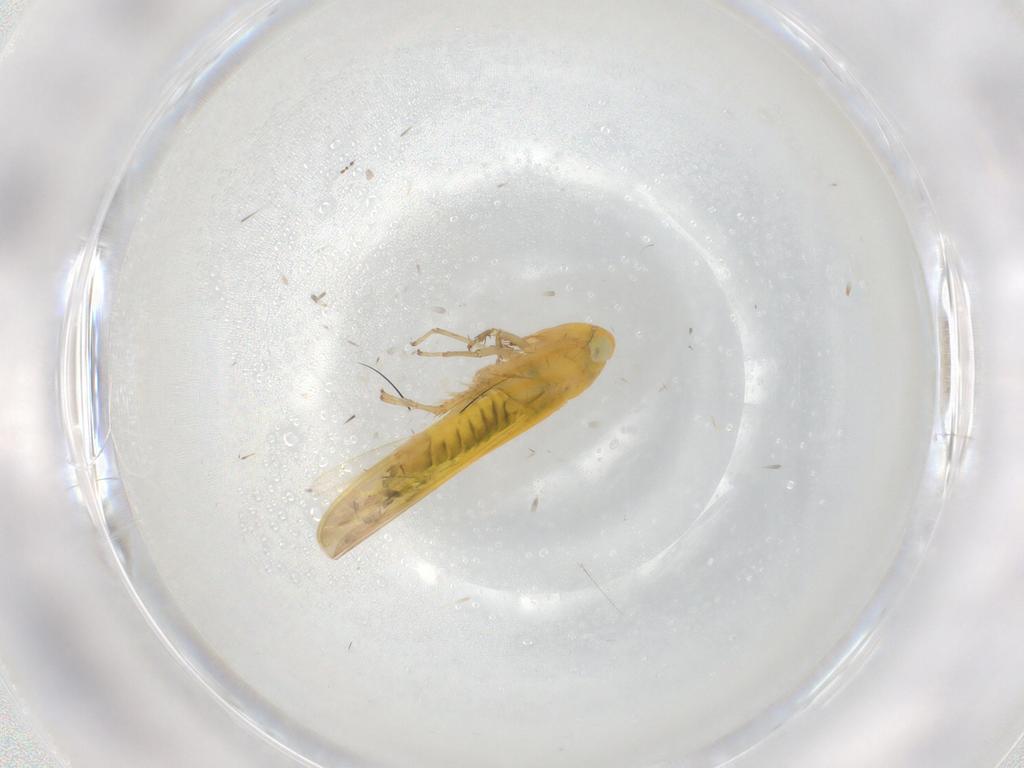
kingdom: Animalia
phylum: Arthropoda
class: Insecta
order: Hemiptera
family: Cicadellidae
